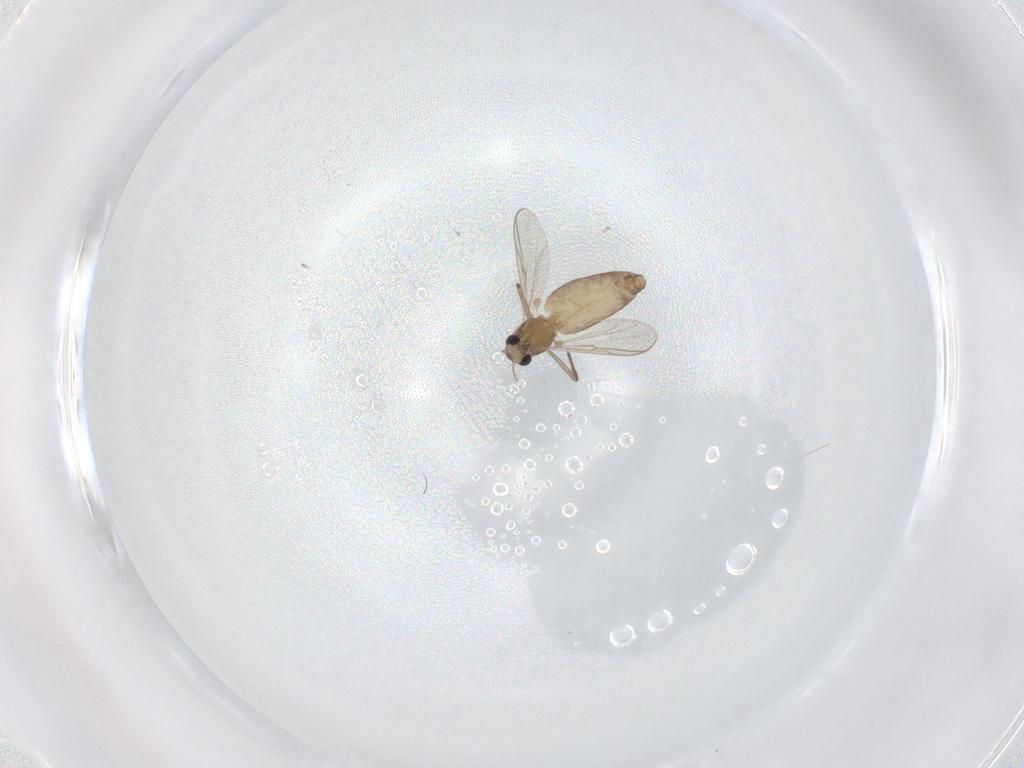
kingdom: Animalia
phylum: Arthropoda
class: Insecta
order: Diptera
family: Chironomidae
